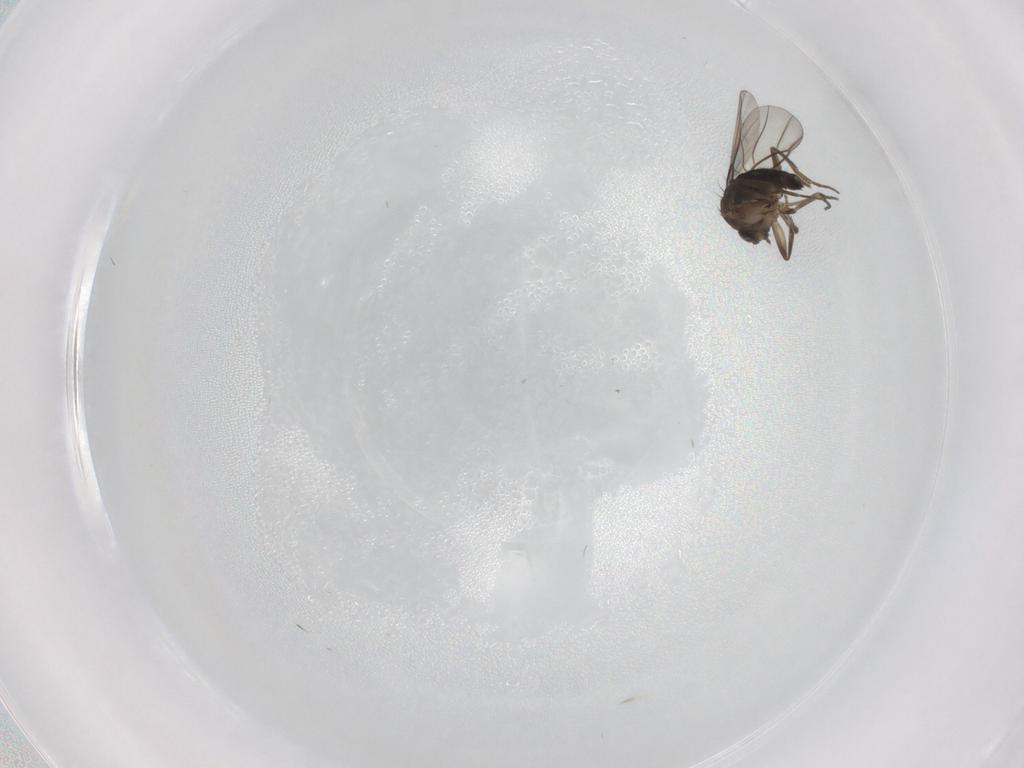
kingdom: Animalia
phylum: Arthropoda
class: Insecta
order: Diptera
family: Phoridae
